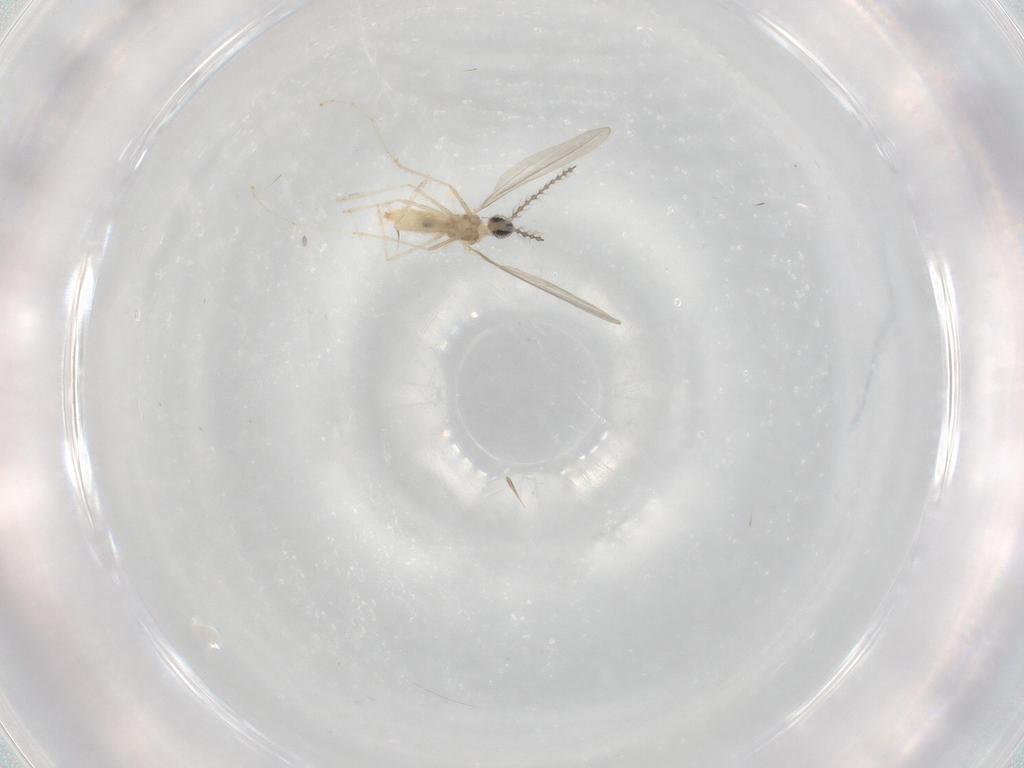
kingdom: Animalia
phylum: Arthropoda
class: Insecta
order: Diptera
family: Cecidomyiidae
